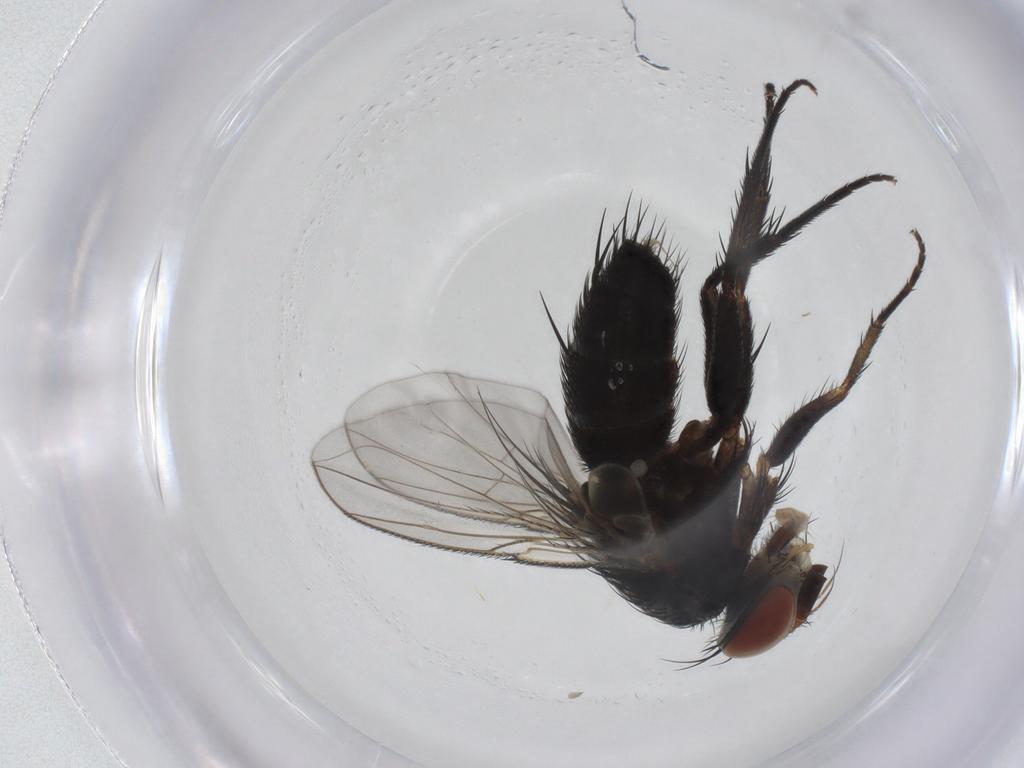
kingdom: Animalia
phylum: Arthropoda
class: Insecta
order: Diptera
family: Tachinidae
